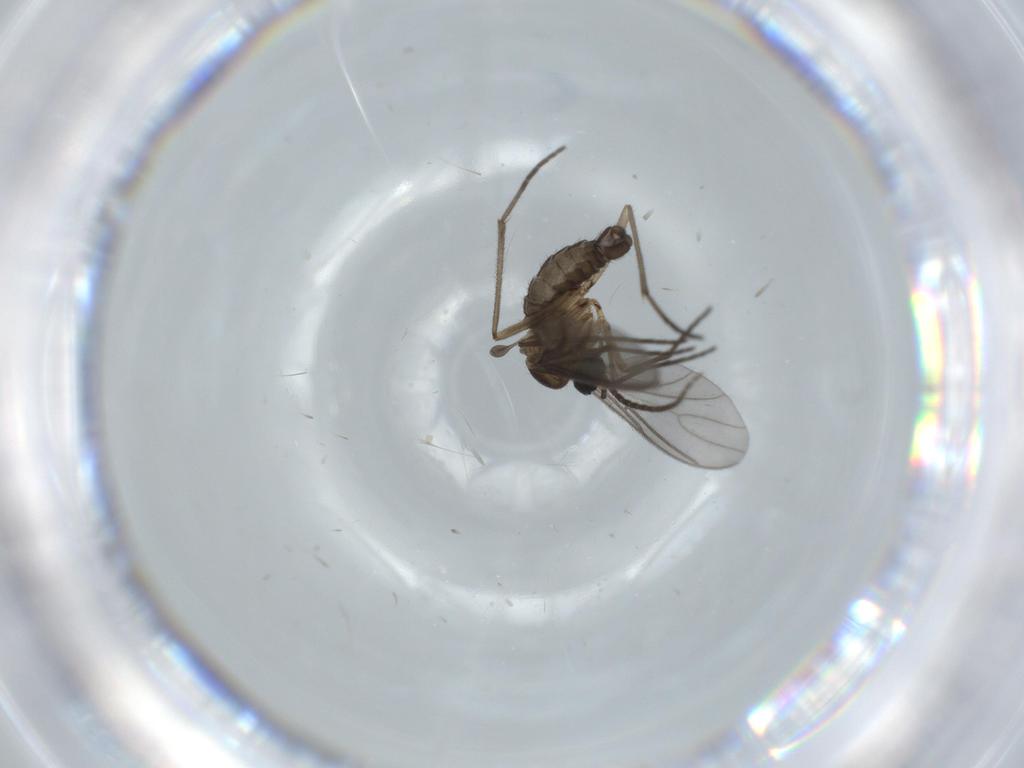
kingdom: Animalia
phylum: Arthropoda
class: Insecta
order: Diptera
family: Sciaridae
